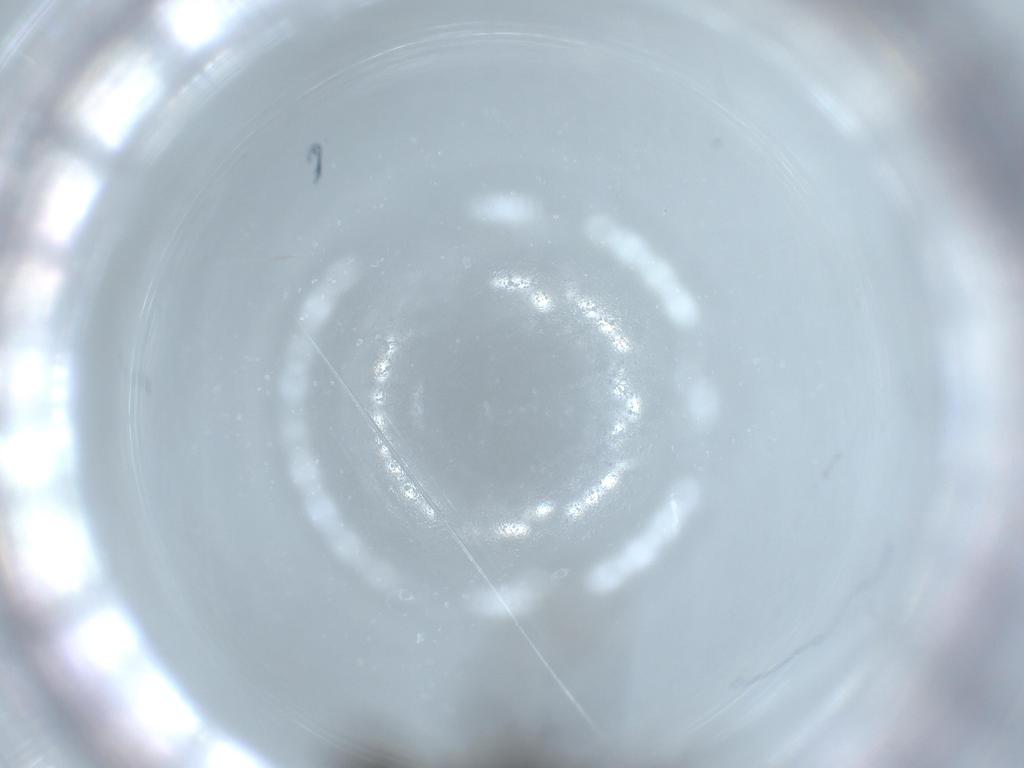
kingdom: Animalia
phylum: Arthropoda
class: Insecta
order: Hymenoptera
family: Formicidae
